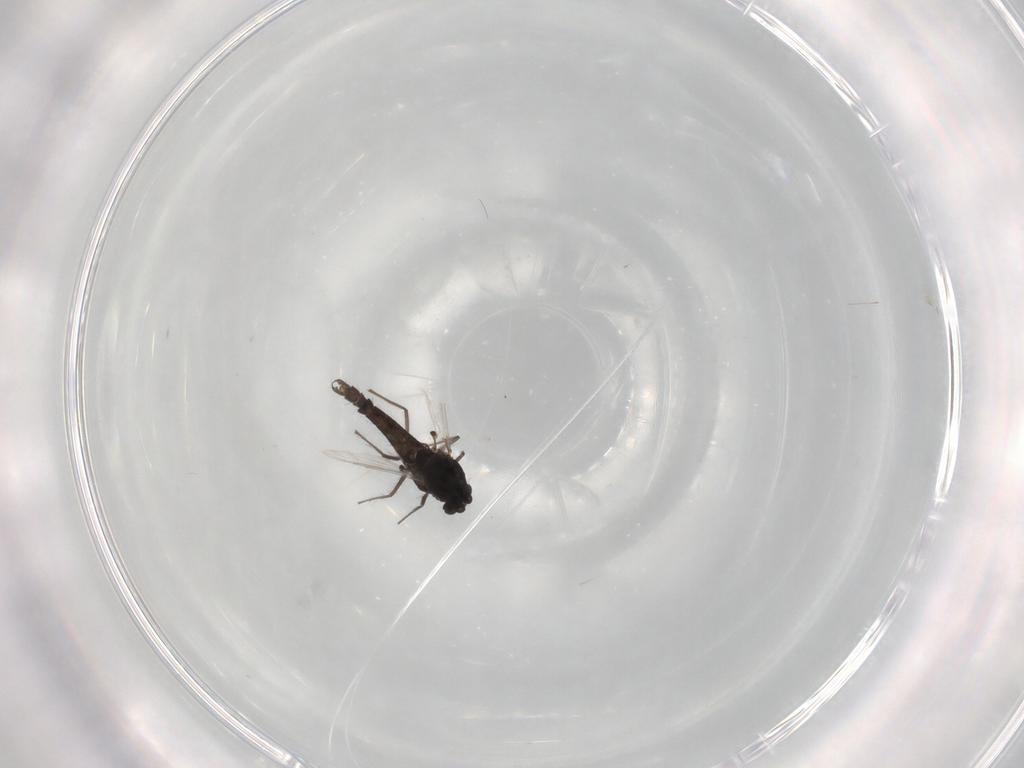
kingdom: Animalia
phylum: Arthropoda
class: Insecta
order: Diptera
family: Chironomidae
